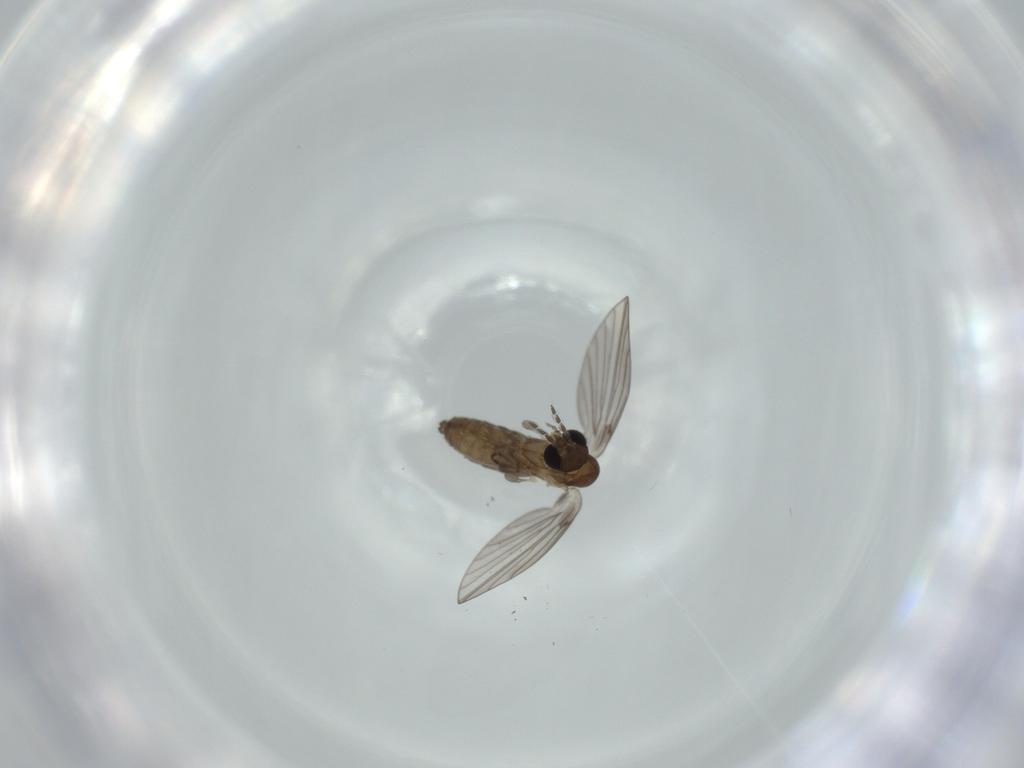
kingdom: Animalia
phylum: Arthropoda
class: Insecta
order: Diptera
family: Psychodidae
